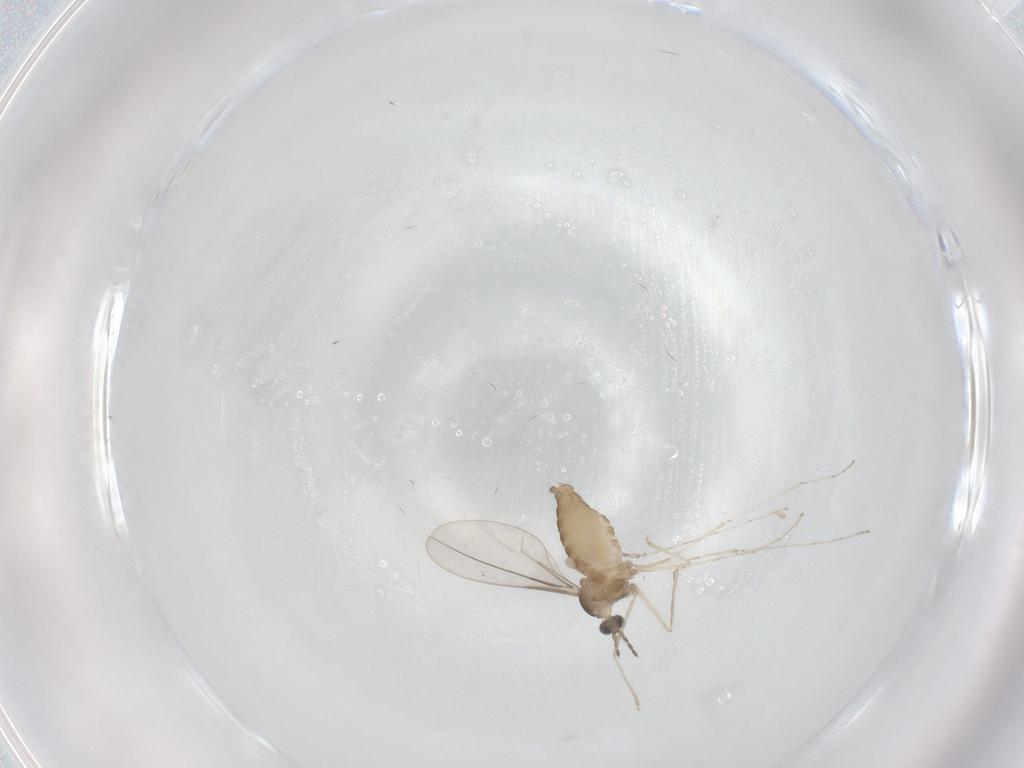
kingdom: Animalia
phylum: Arthropoda
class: Insecta
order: Diptera
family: Cecidomyiidae
